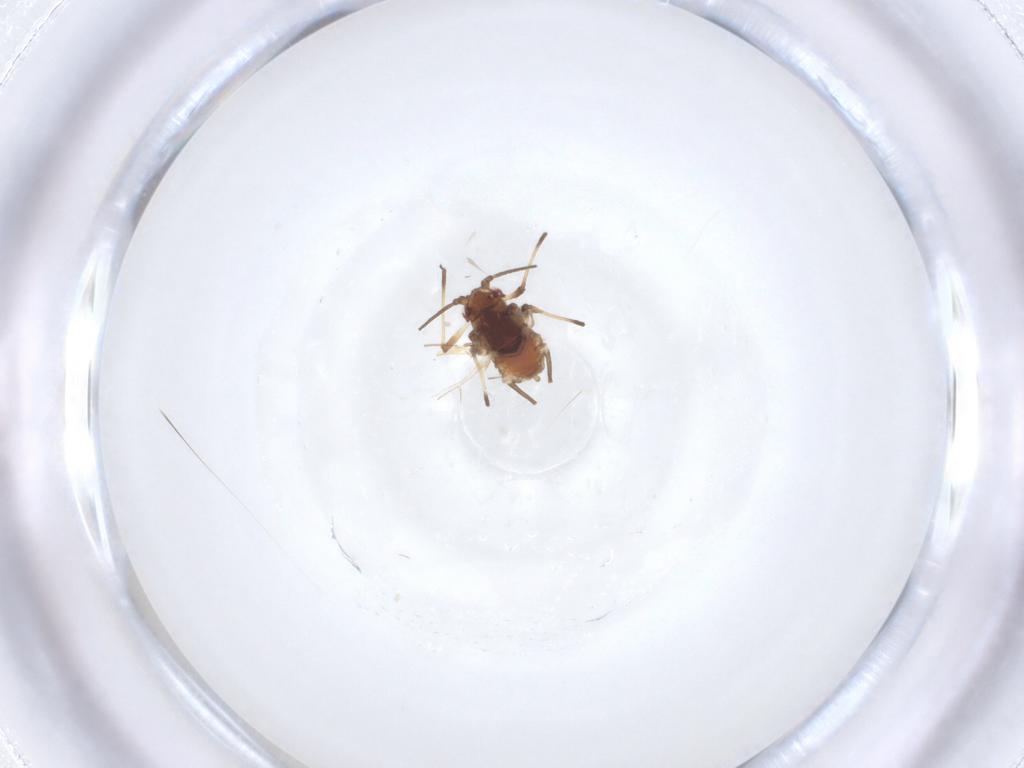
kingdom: Animalia
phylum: Arthropoda
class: Insecta
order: Hemiptera
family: Aphididae
